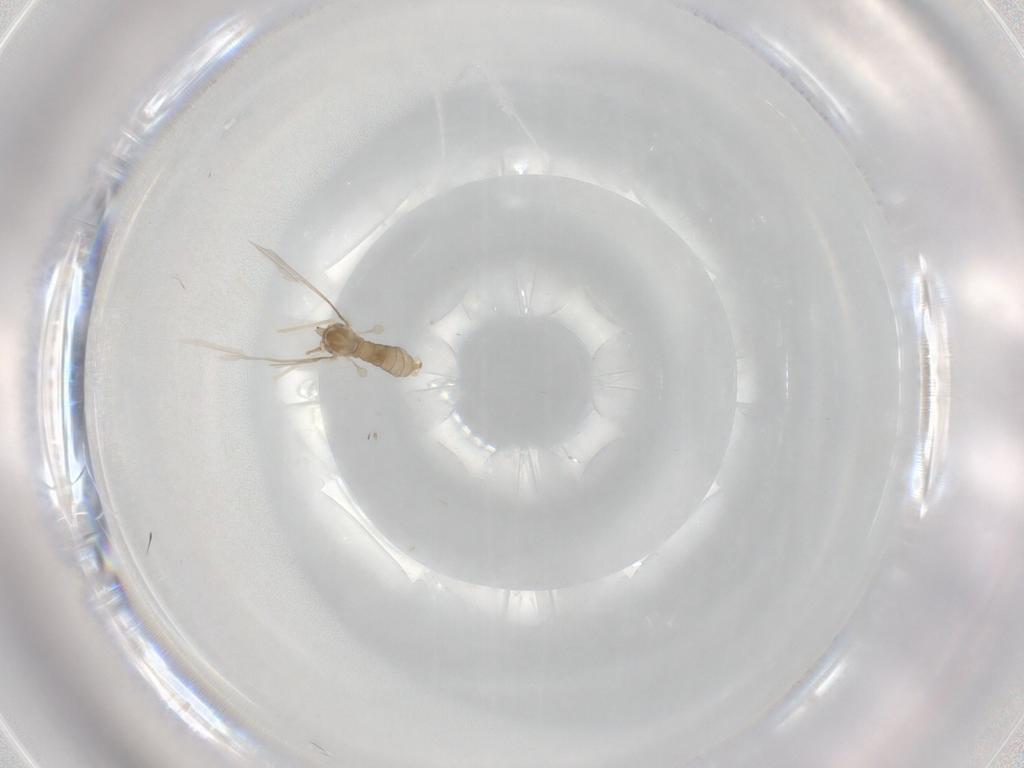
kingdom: Animalia
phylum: Arthropoda
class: Insecta
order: Diptera
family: Cecidomyiidae
